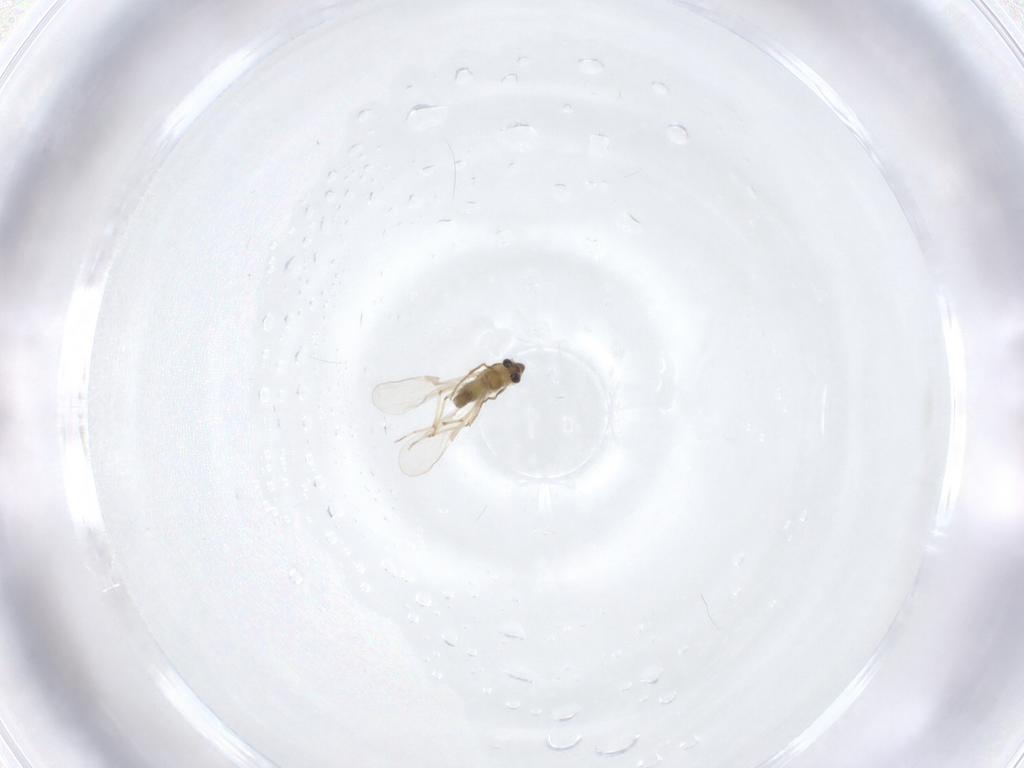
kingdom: Animalia
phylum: Arthropoda
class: Insecta
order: Diptera
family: Chironomidae
